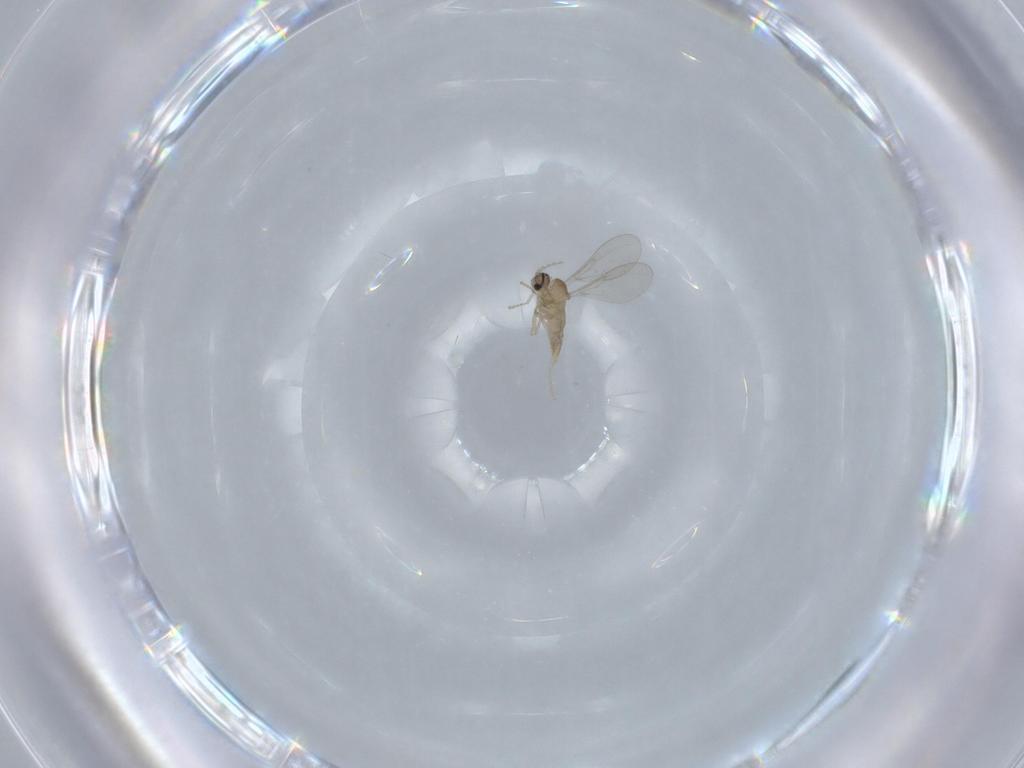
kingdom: Animalia
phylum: Arthropoda
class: Insecta
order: Diptera
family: Cecidomyiidae
